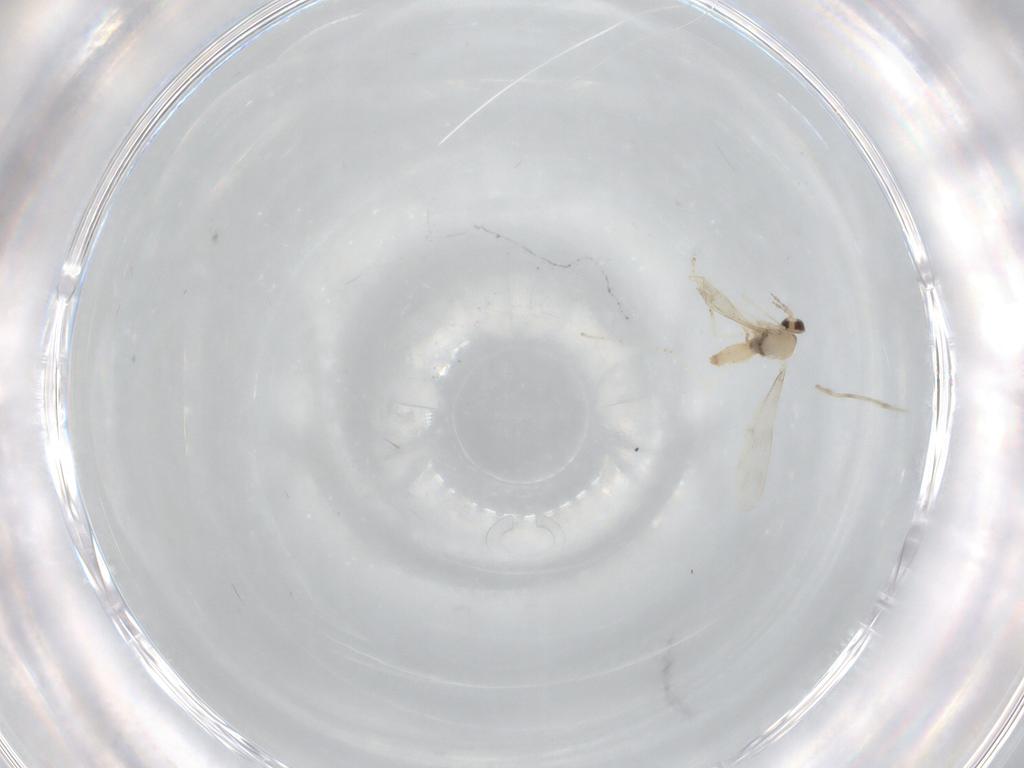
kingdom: Animalia
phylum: Arthropoda
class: Insecta
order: Diptera
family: Cecidomyiidae
